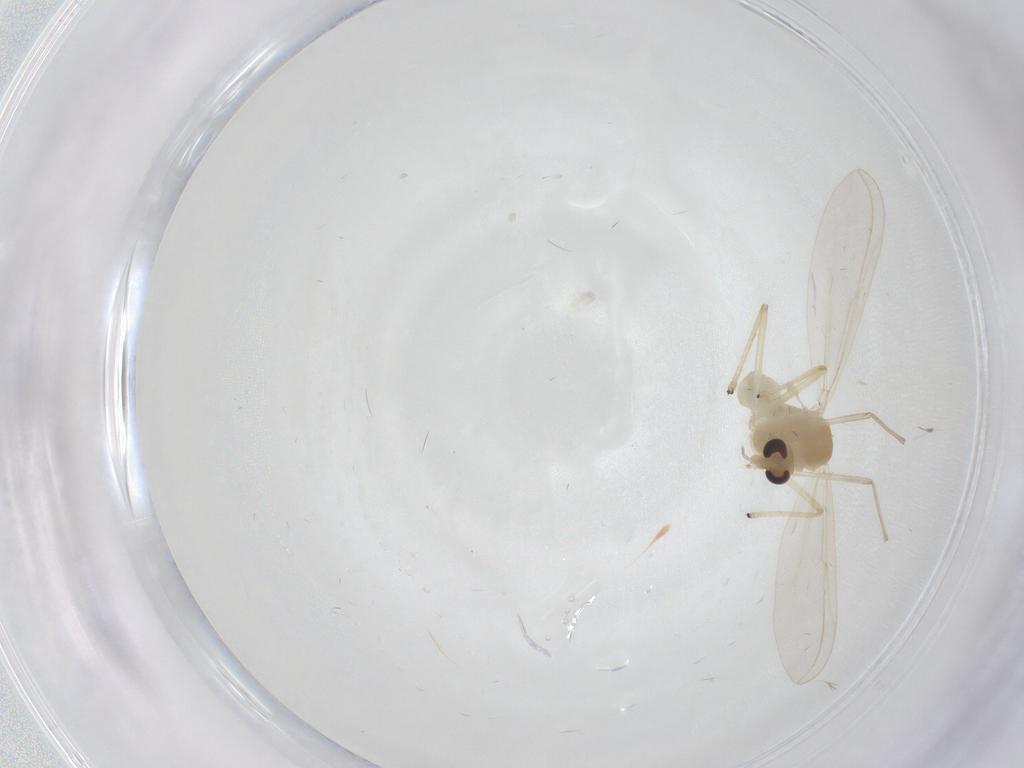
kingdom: Animalia
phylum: Arthropoda
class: Insecta
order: Diptera
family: Chironomidae
